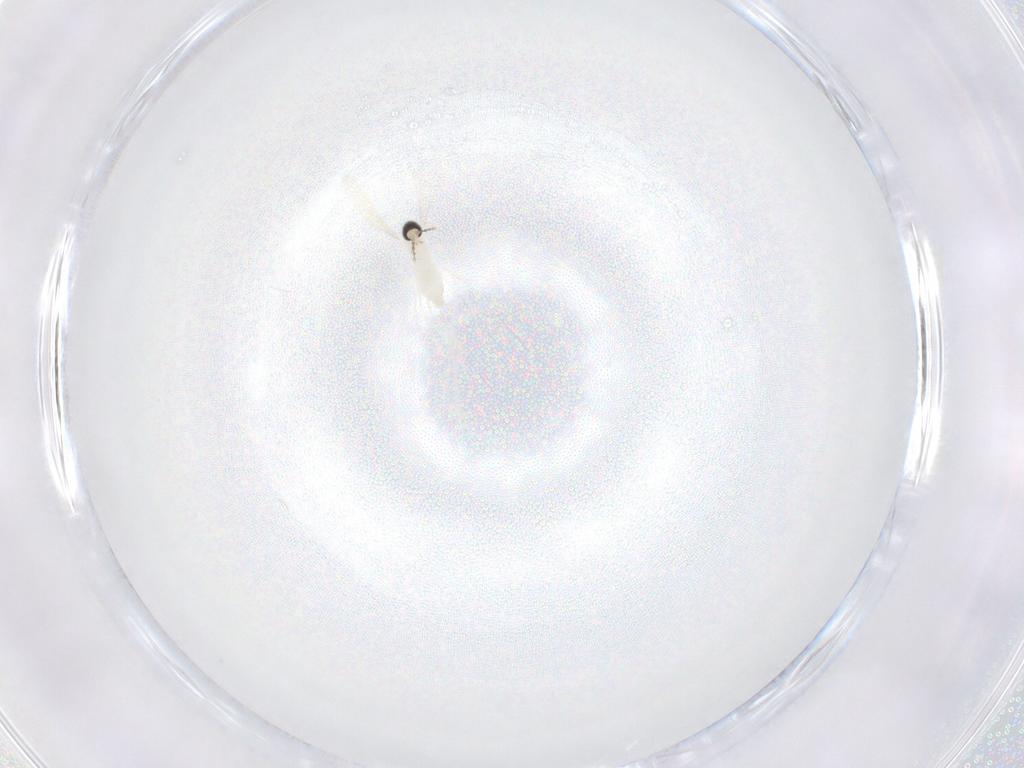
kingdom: Animalia
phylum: Arthropoda
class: Insecta
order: Diptera
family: Cecidomyiidae
